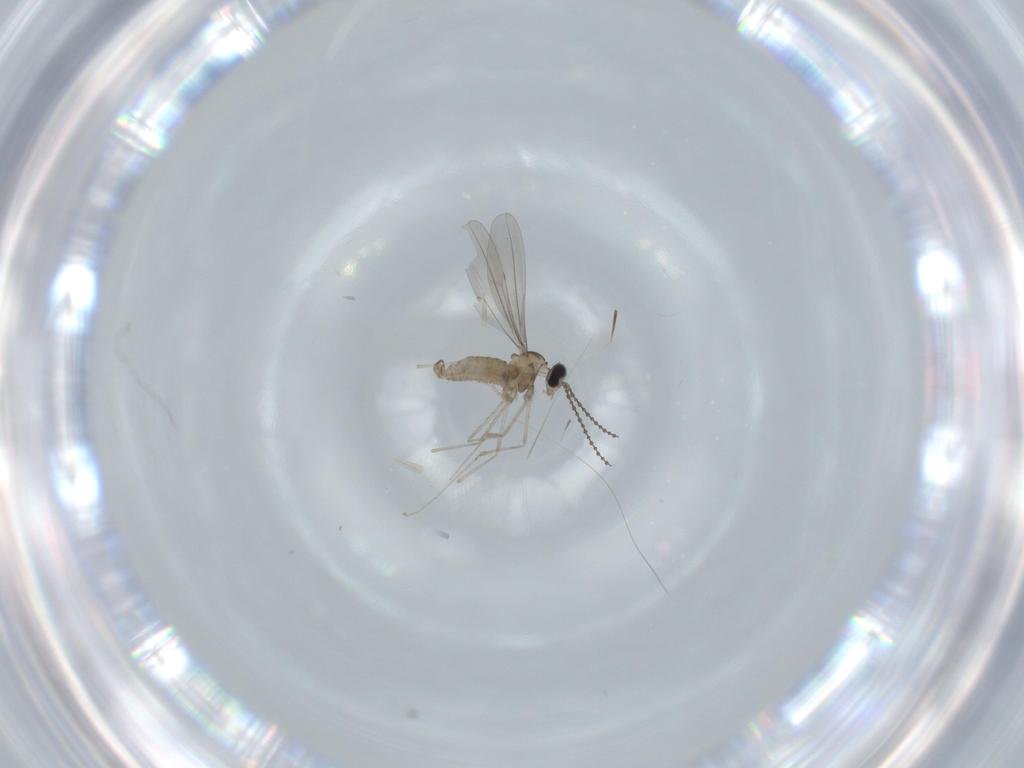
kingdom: Animalia
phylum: Arthropoda
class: Insecta
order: Diptera
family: Cecidomyiidae
